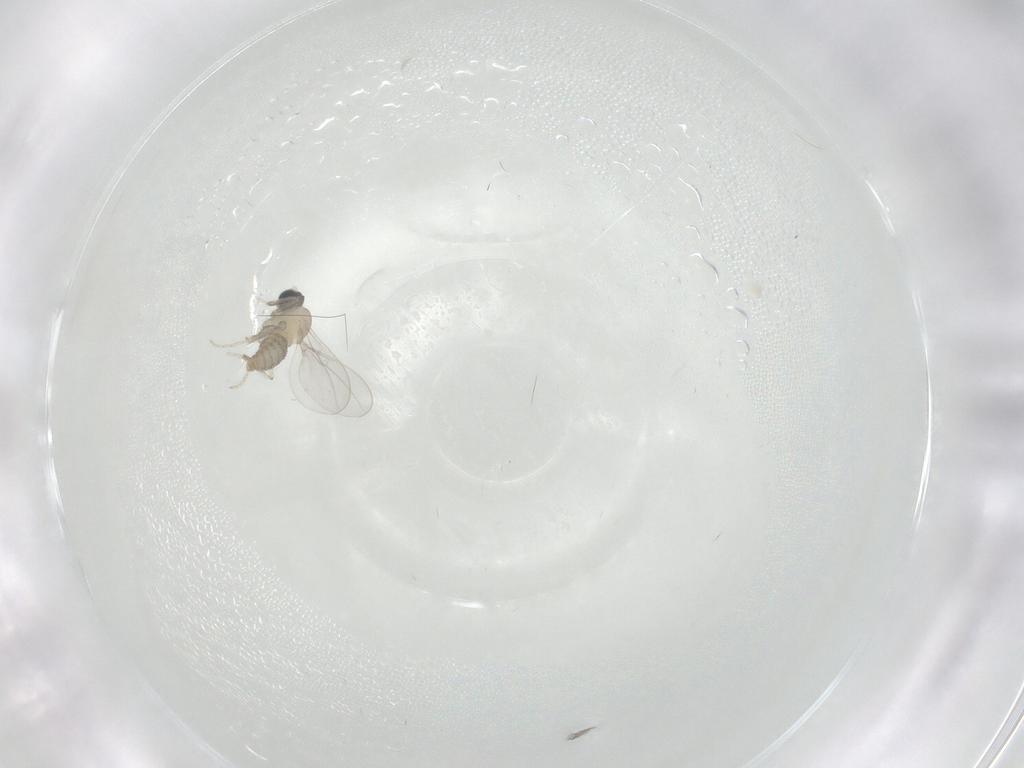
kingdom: Animalia
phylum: Arthropoda
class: Insecta
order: Diptera
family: Cecidomyiidae
